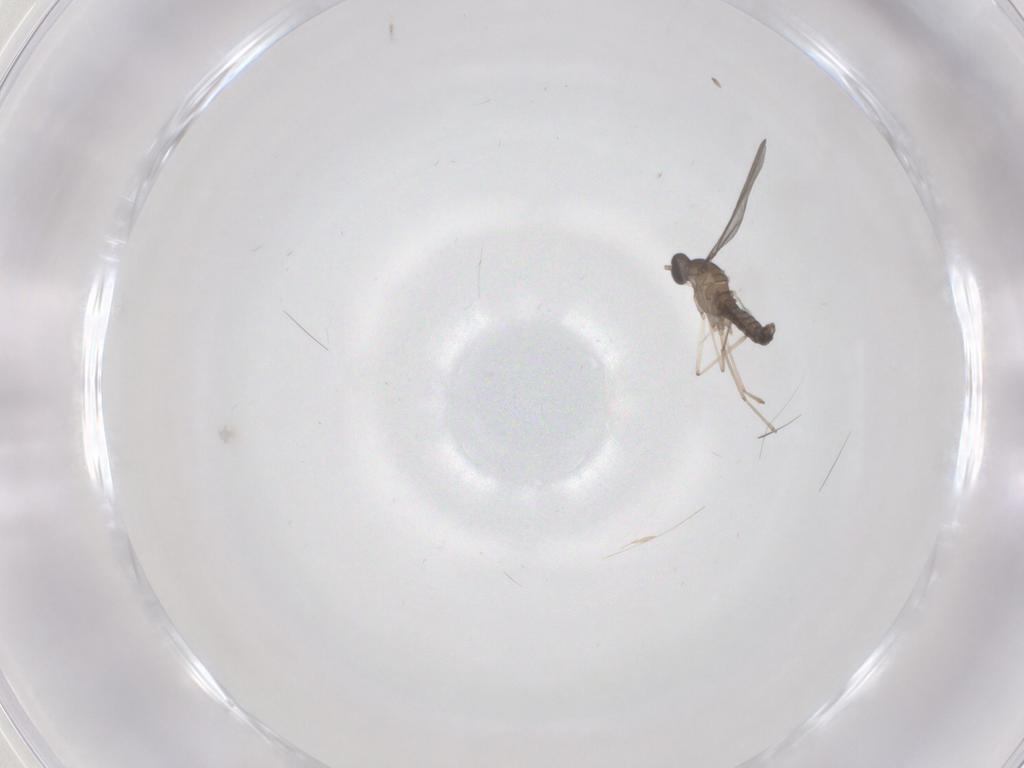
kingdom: Animalia
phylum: Arthropoda
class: Insecta
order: Diptera
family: Cecidomyiidae
